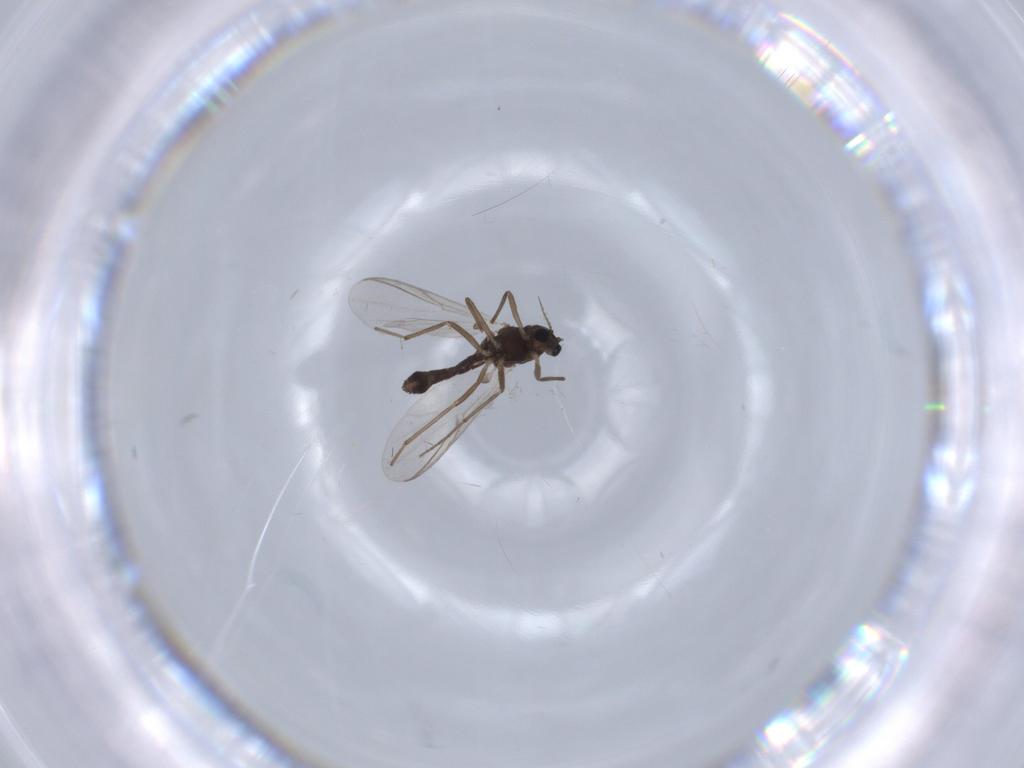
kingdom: Animalia
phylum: Arthropoda
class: Insecta
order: Diptera
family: Chironomidae
